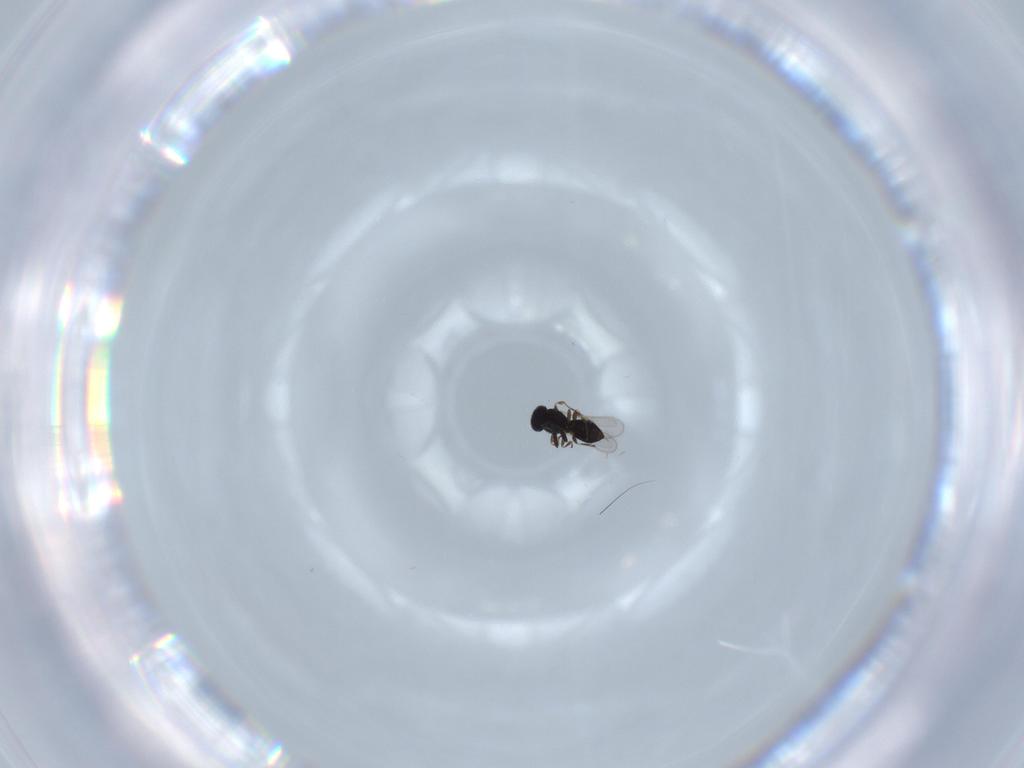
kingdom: Animalia
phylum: Arthropoda
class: Insecta
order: Hymenoptera
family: Scelionidae
